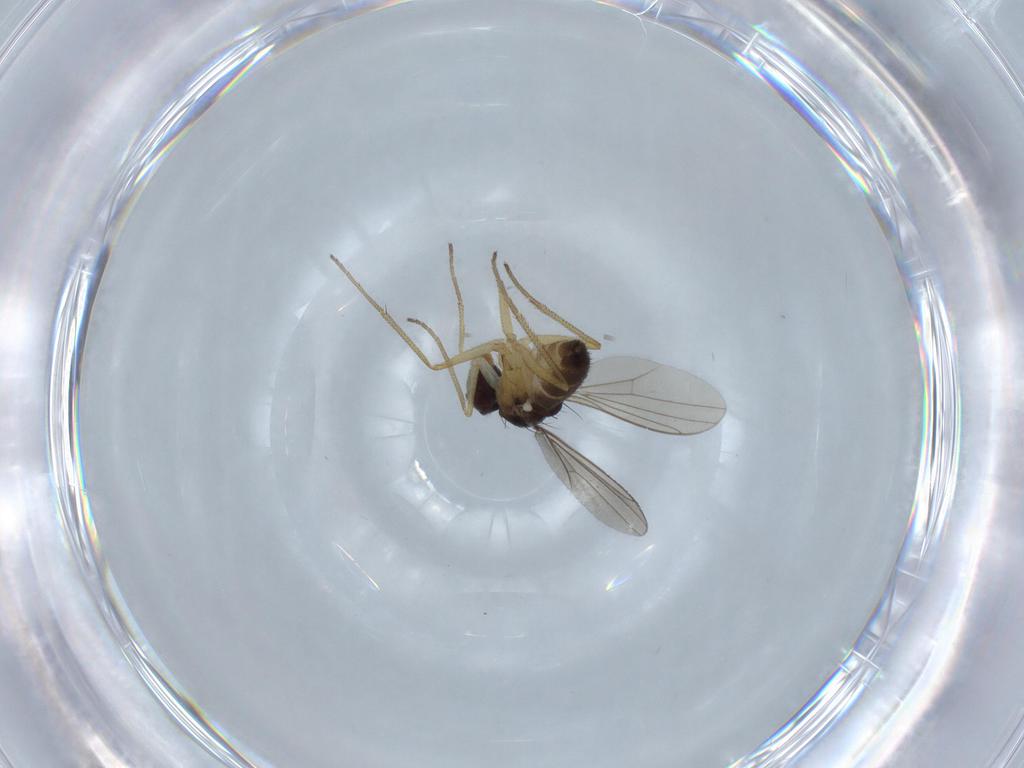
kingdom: Animalia
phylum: Arthropoda
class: Insecta
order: Diptera
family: Dolichopodidae
